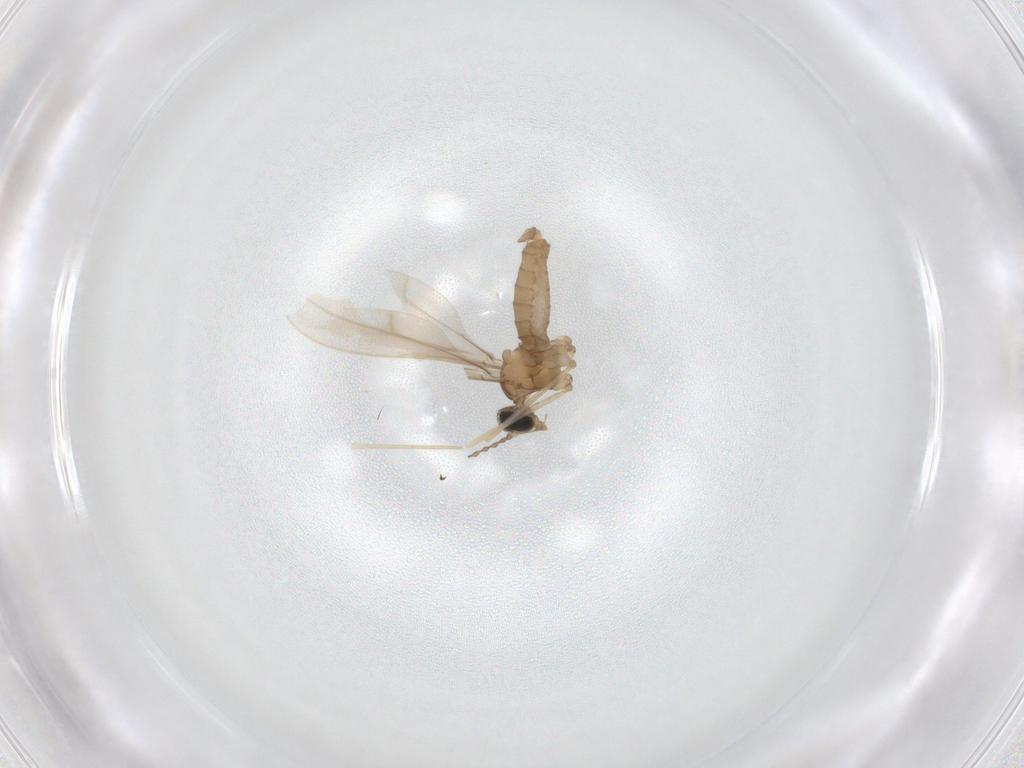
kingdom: Animalia
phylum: Arthropoda
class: Insecta
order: Diptera
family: Cecidomyiidae
